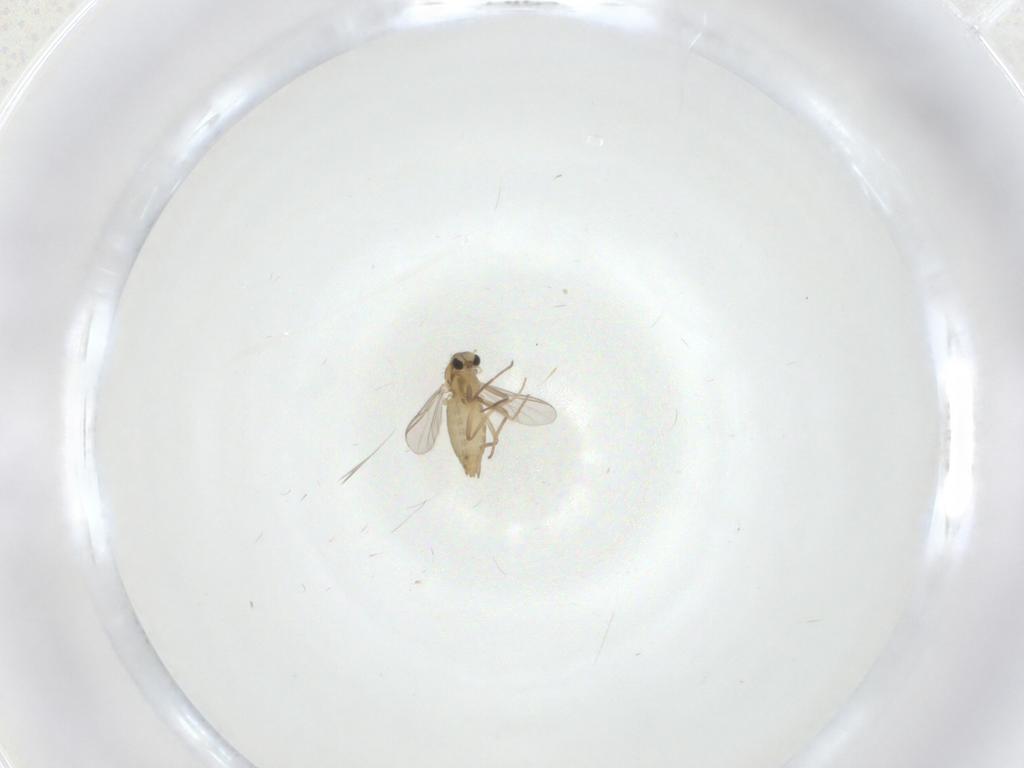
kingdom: Animalia
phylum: Arthropoda
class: Insecta
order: Diptera
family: Chironomidae
